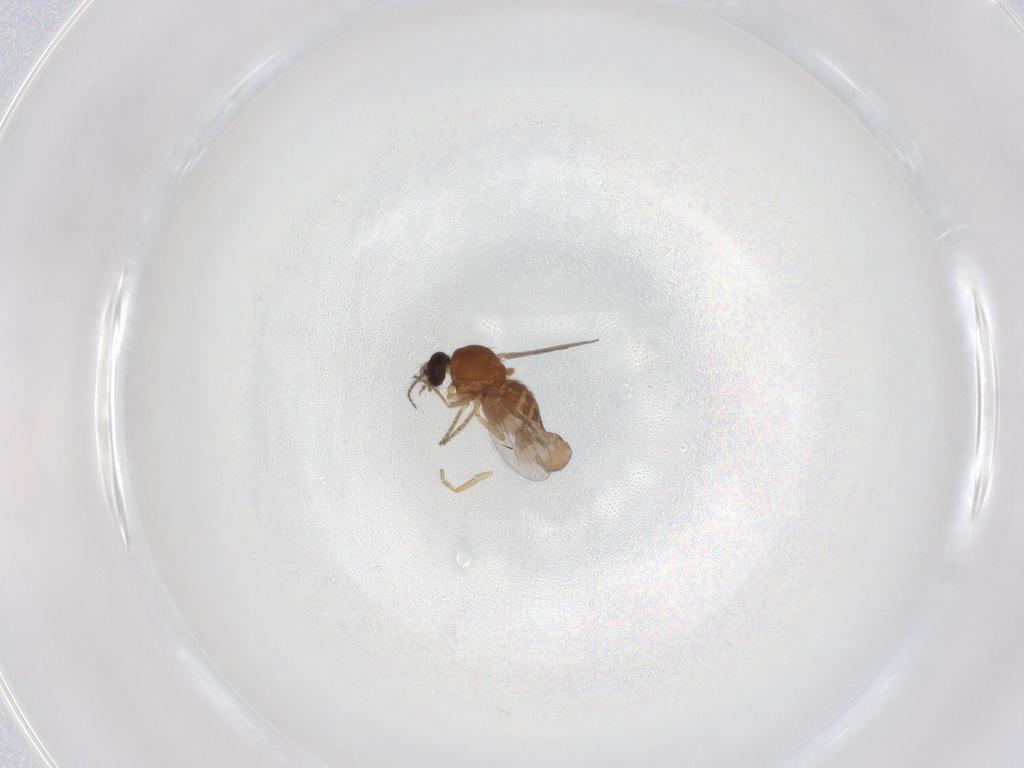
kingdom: Animalia
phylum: Arthropoda
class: Insecta
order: Diptera
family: Ceratopogonidae
